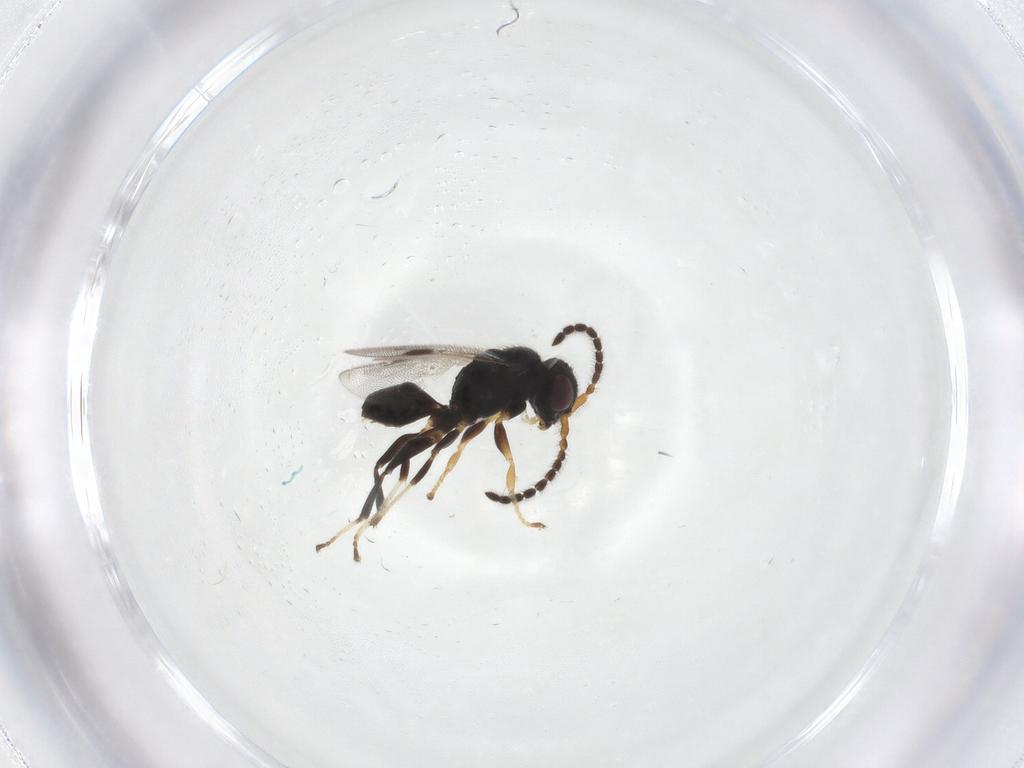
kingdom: Animalia
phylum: Arthropoda
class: Insecta
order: Hymenoptera
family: Dryinidae
